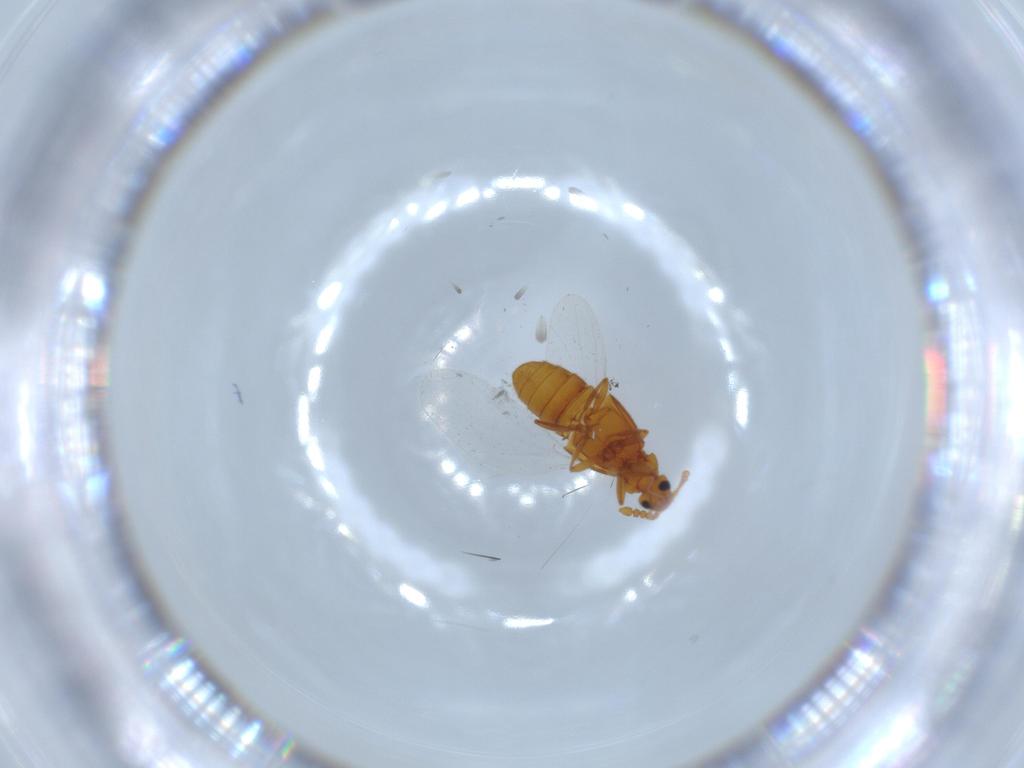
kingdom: Animalia
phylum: Arthropoda
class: Insecta
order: Coleoptera
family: Staphylinidae
